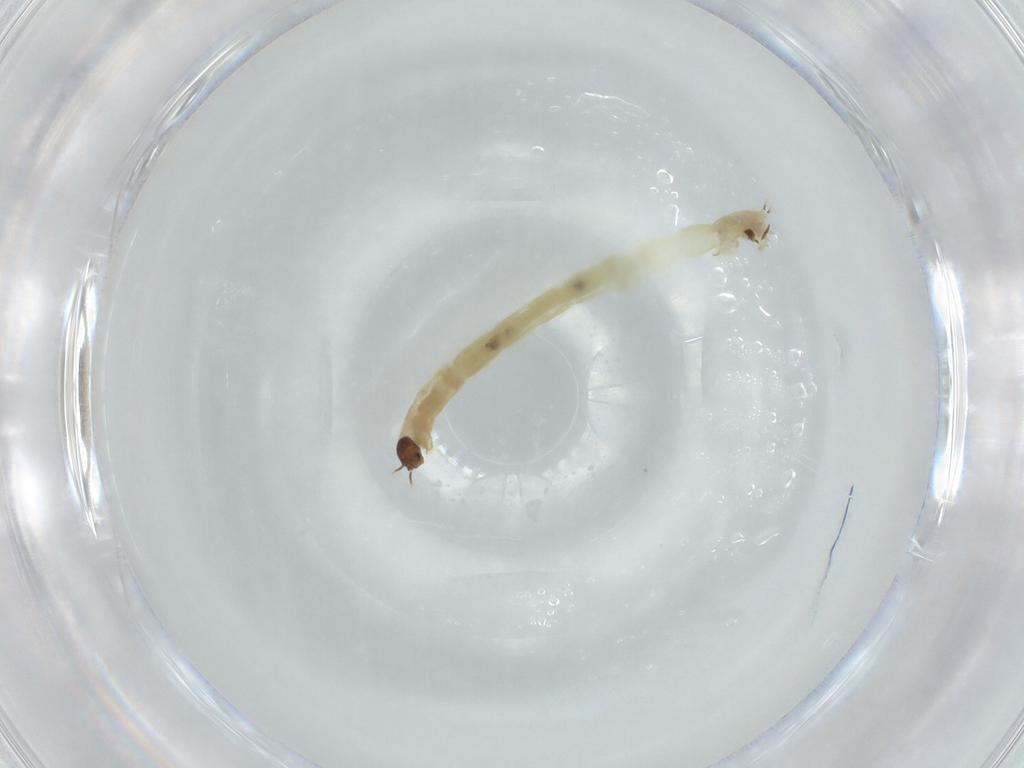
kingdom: Animalia
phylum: Arthropoda
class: Insecta
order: Diptera
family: Chironomidae
